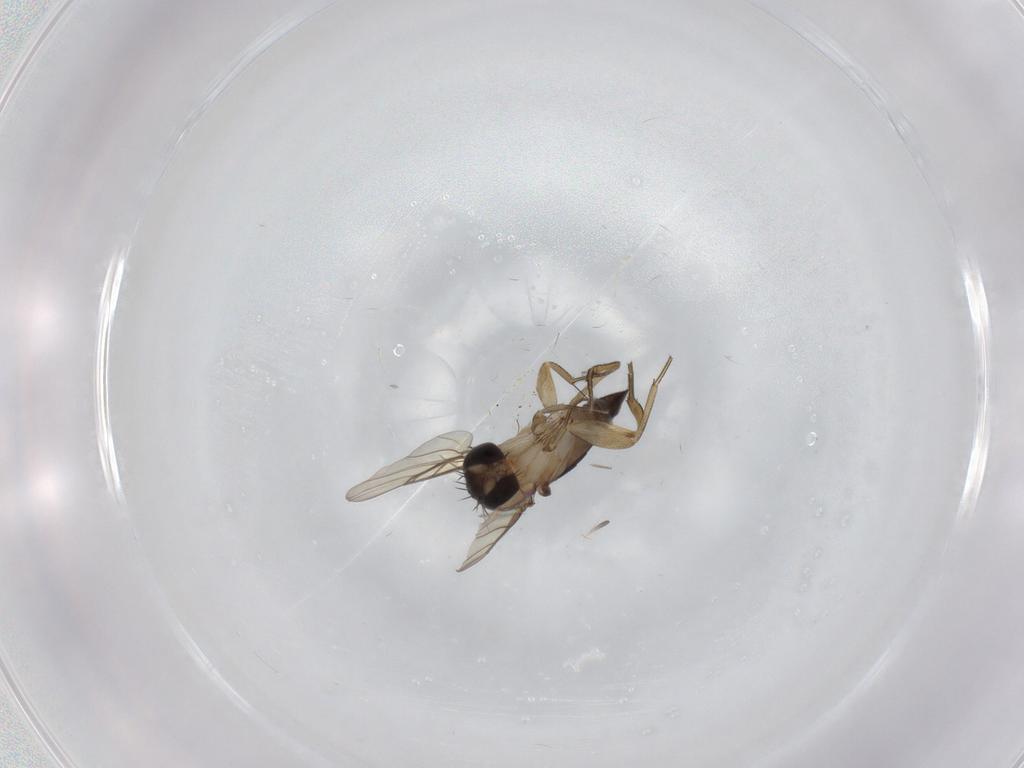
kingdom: Animalia
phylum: Arthropoda
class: Insecta
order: Diptera
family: Phoridae
